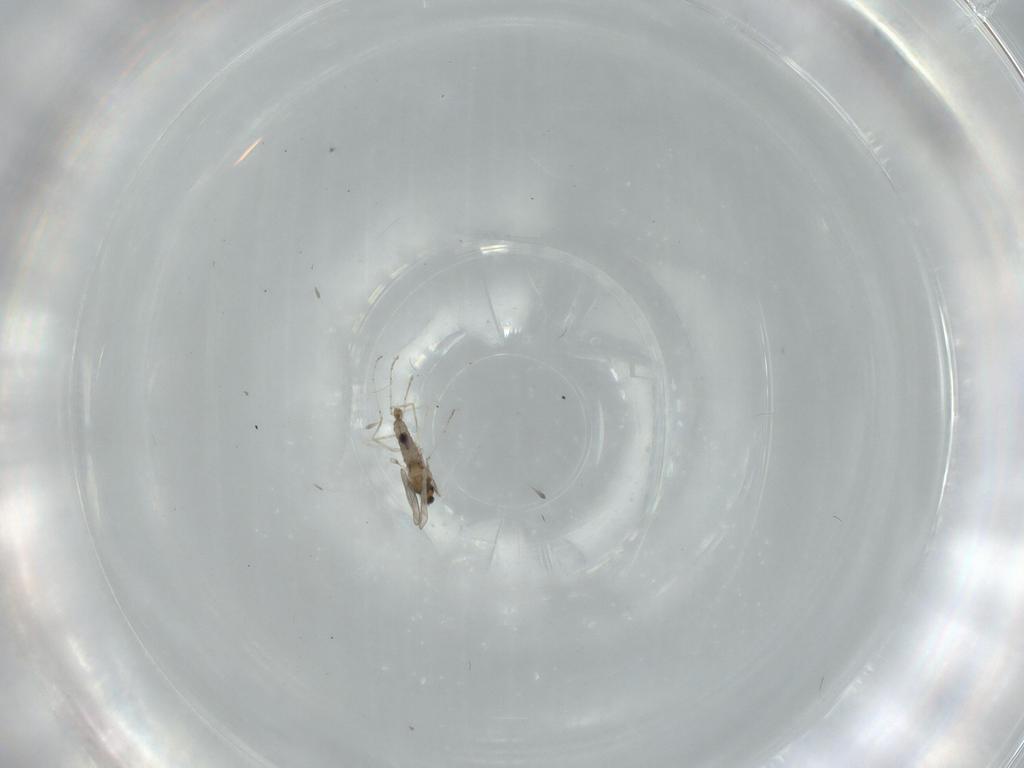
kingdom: Animalia
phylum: Arthropoda
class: Insecta
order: Diptera
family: Cecidomyiidae
